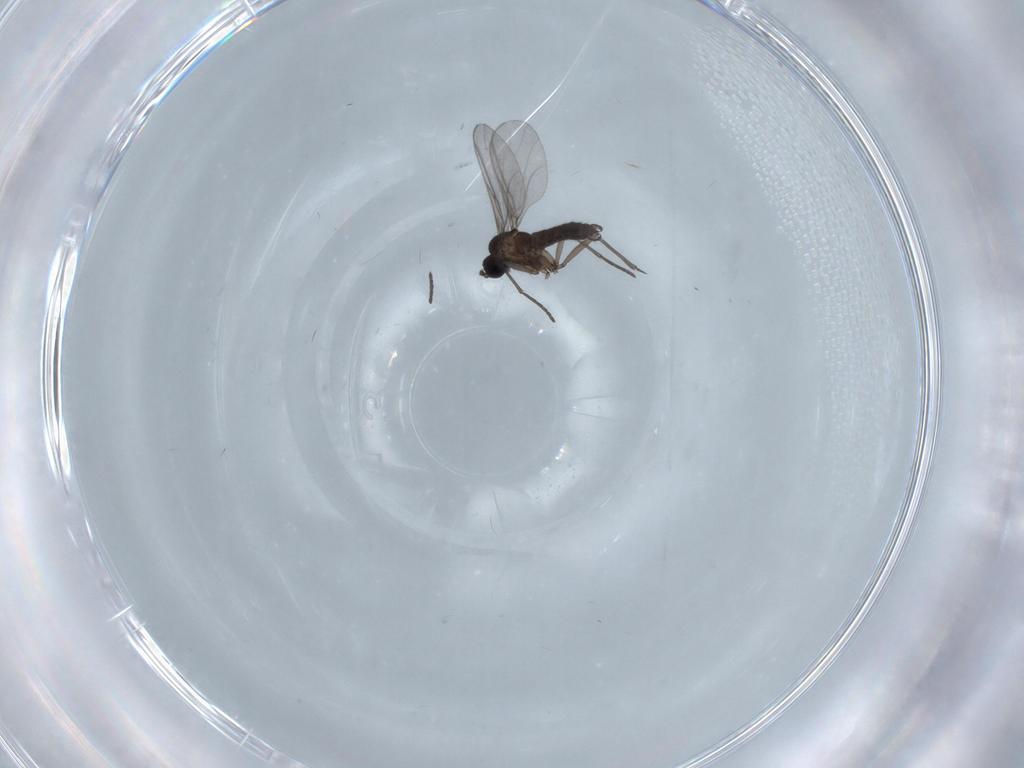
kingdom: Animalia
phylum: Arthropoda
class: Insecta
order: Diptera
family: Chironomidae
